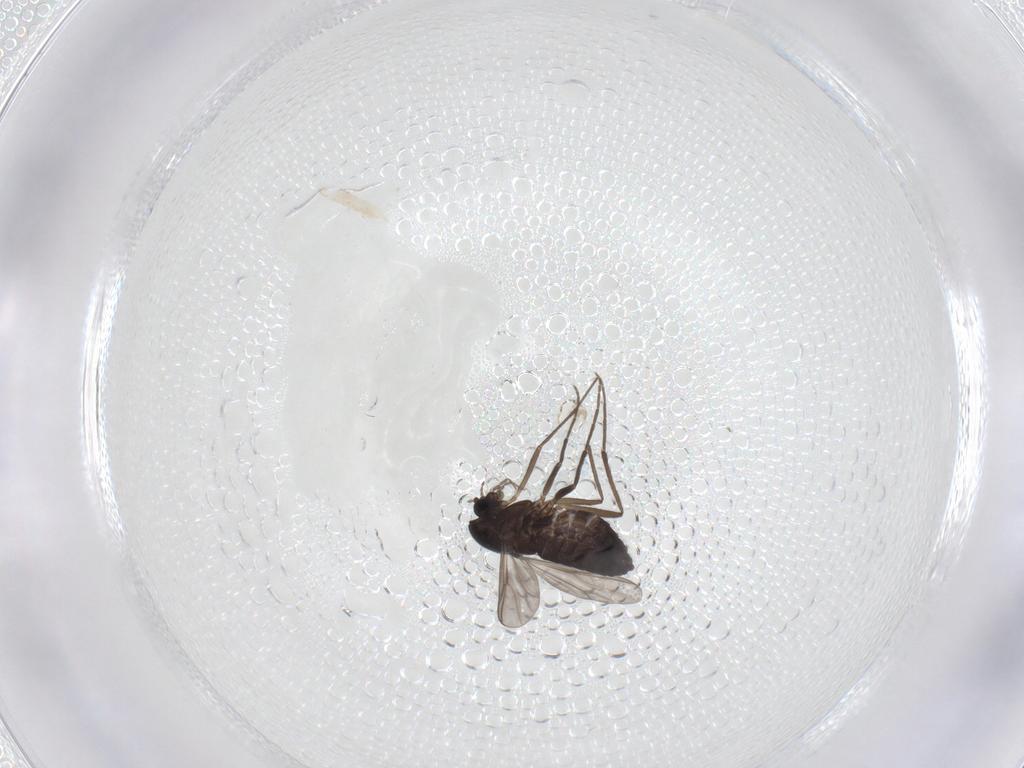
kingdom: Animalia
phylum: Arthropoda
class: Insecta
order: Diptera
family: Chironomidae
